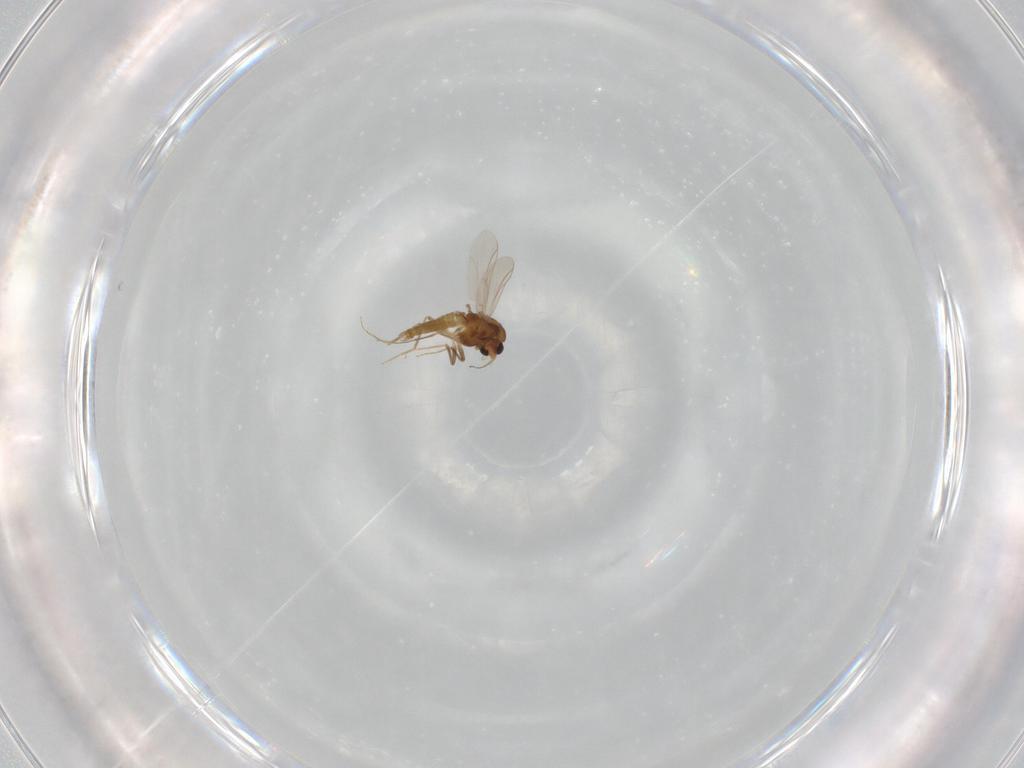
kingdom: Animalia
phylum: Arthropoda
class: Insecta
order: Diptera
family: Chironomidae
